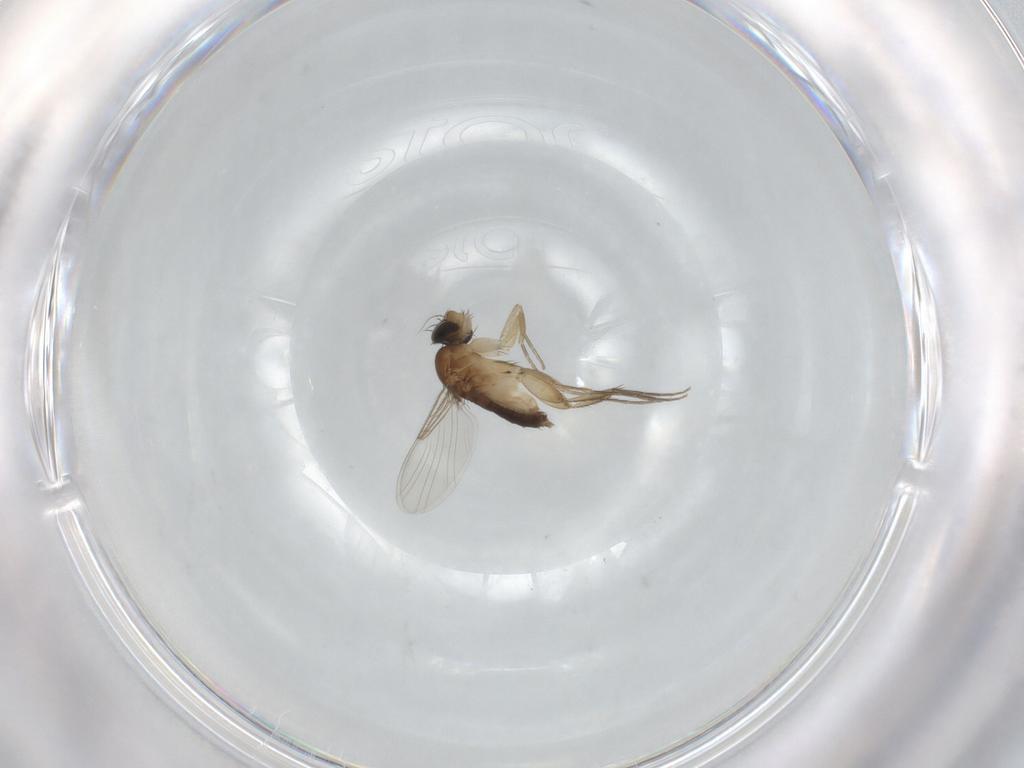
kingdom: Animalia
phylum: Arthropoda
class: Insecta
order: Diptera
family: Phoridae
